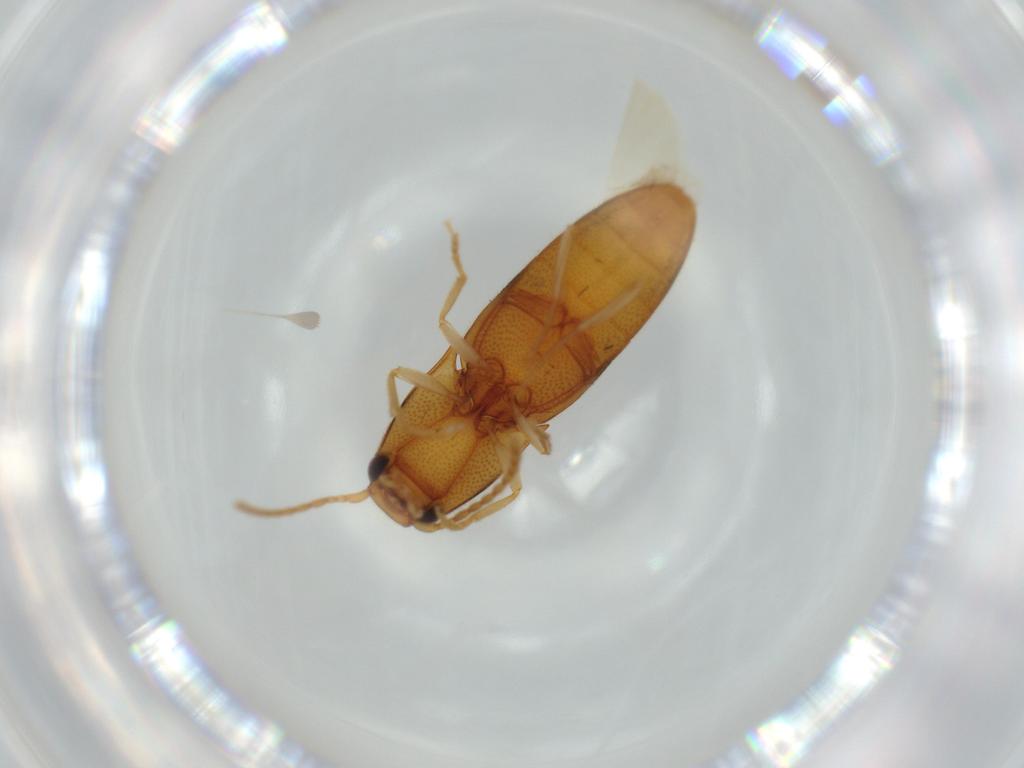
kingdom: Animalia
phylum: Arthropoda
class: Insecta
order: Coleoptera
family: Elateridae
